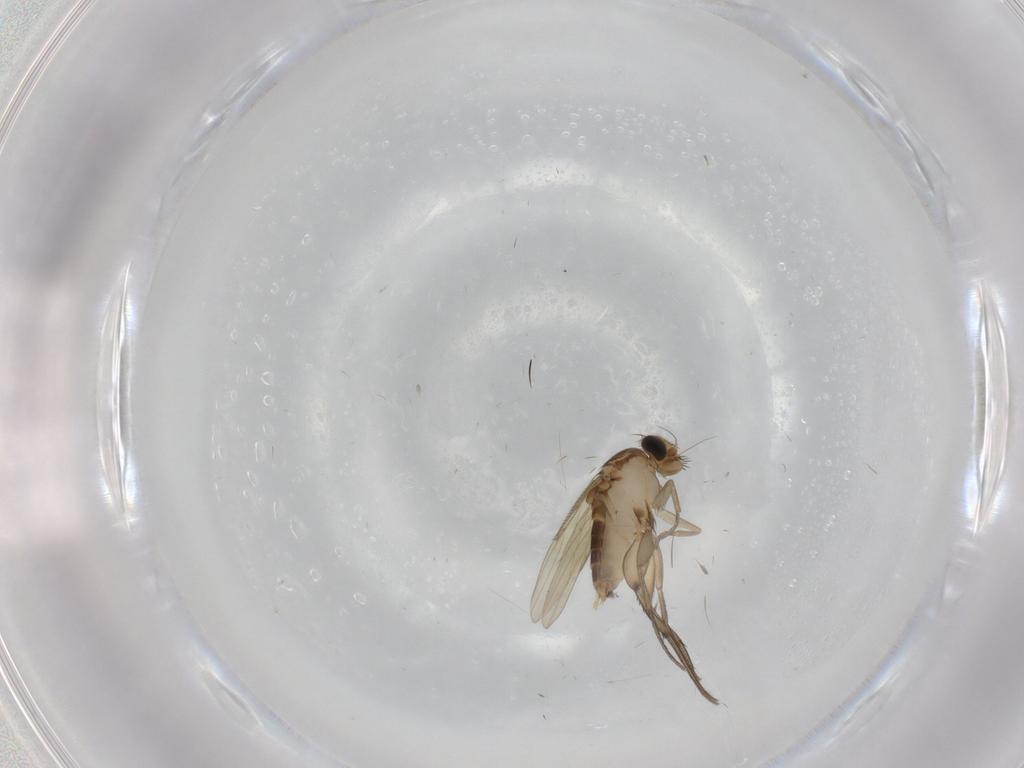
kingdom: Animalia
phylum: Arthropoda
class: Insecta
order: Diptera
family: Phoridae
